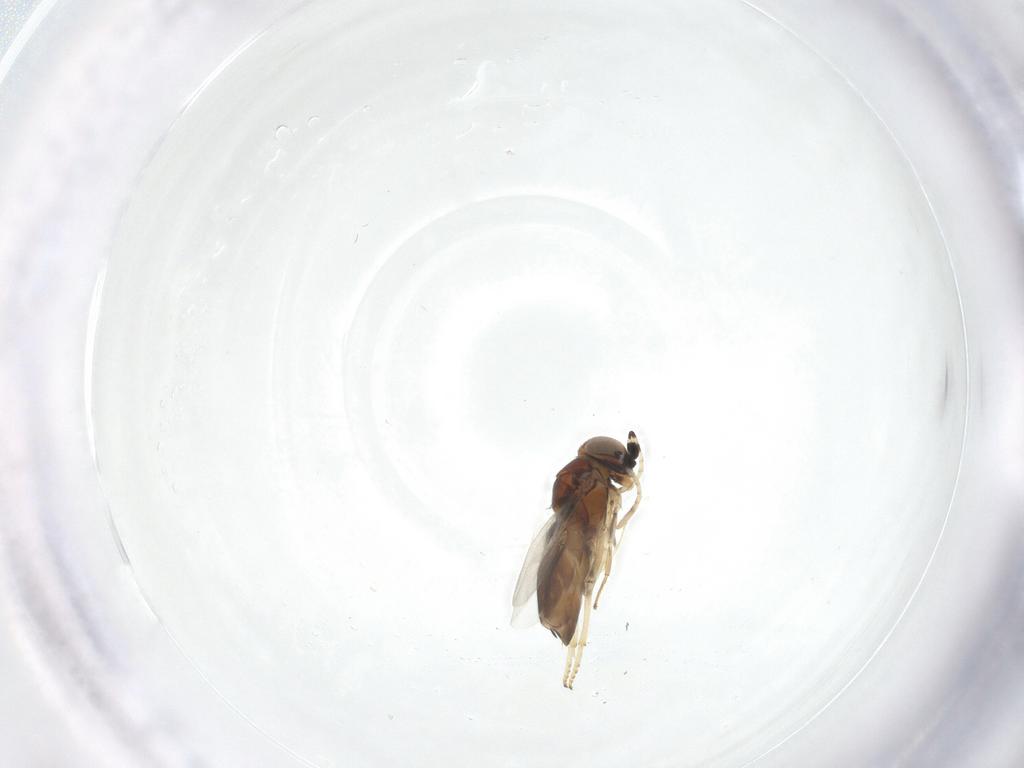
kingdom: Animalia
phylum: Arthropoda
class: Insecta
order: Hymenoptera
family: Encyrtidae
